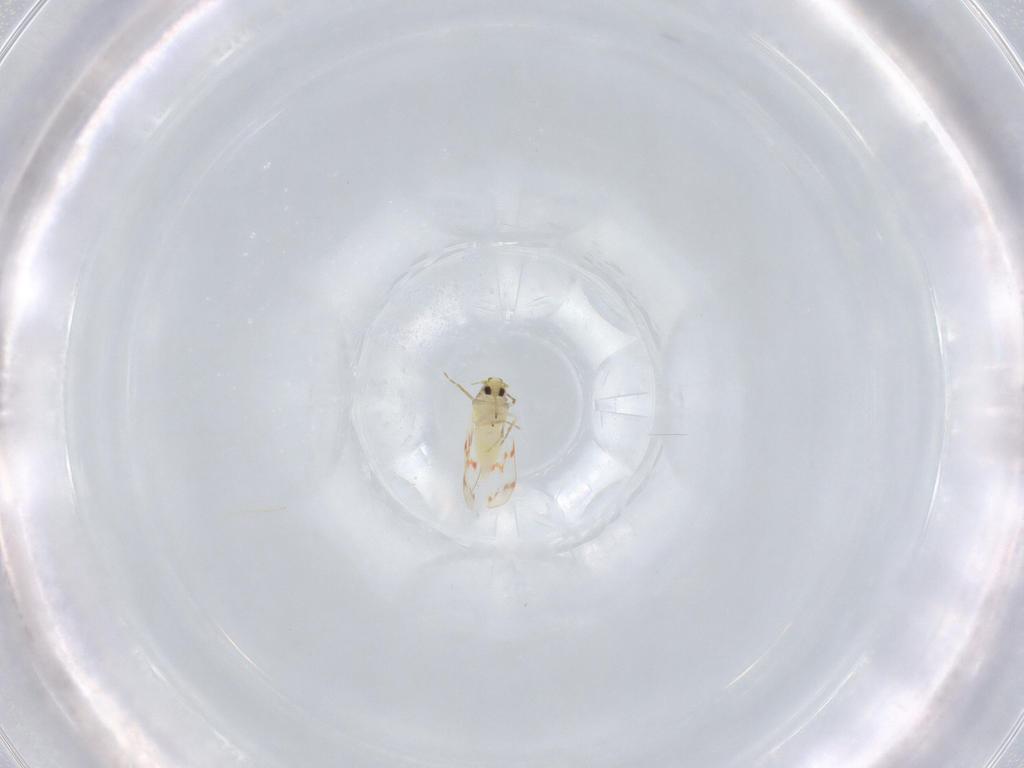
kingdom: Animalia
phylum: Arthropoda
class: Insecta
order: Hemiptera
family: Aleyrodidae
